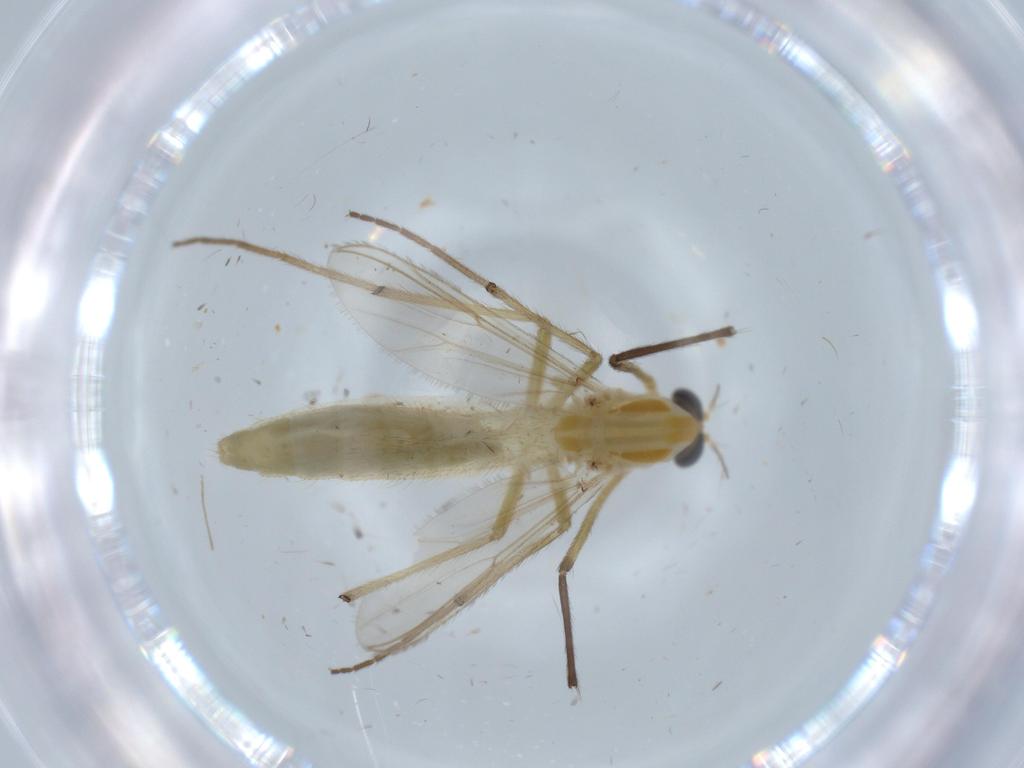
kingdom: Animalia
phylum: Arthropoda
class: Insecta
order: Diptera
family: Chironomidae
